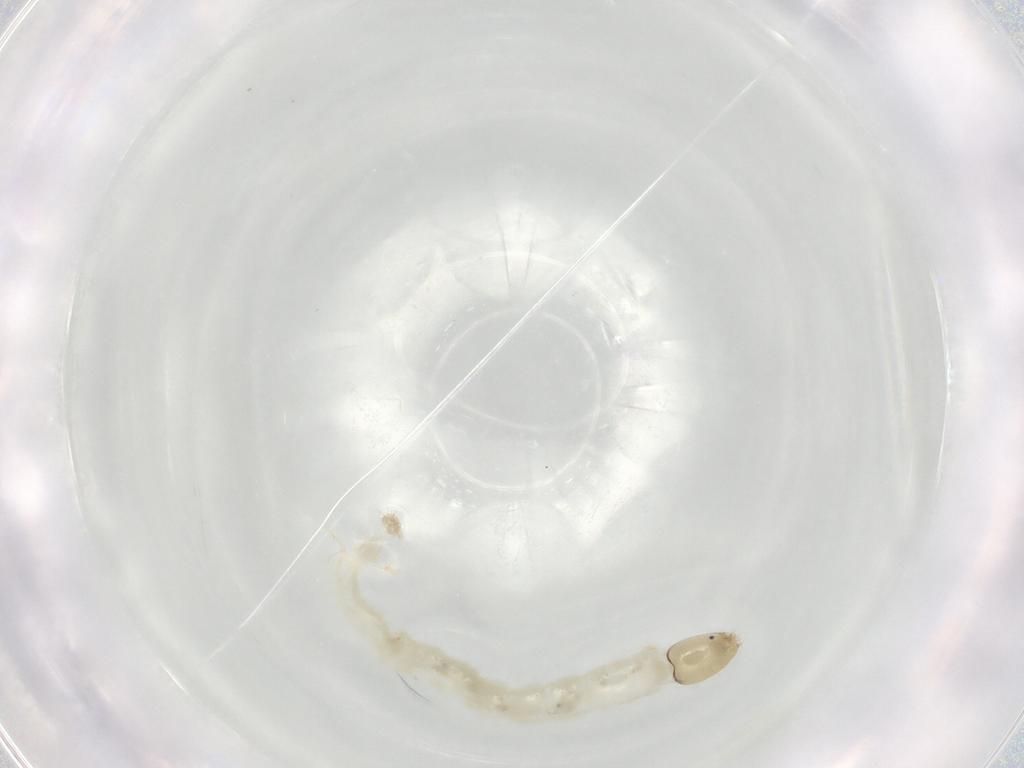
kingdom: Animalia
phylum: Arthropoda
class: Insecta
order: Diptera
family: Chironomidae
